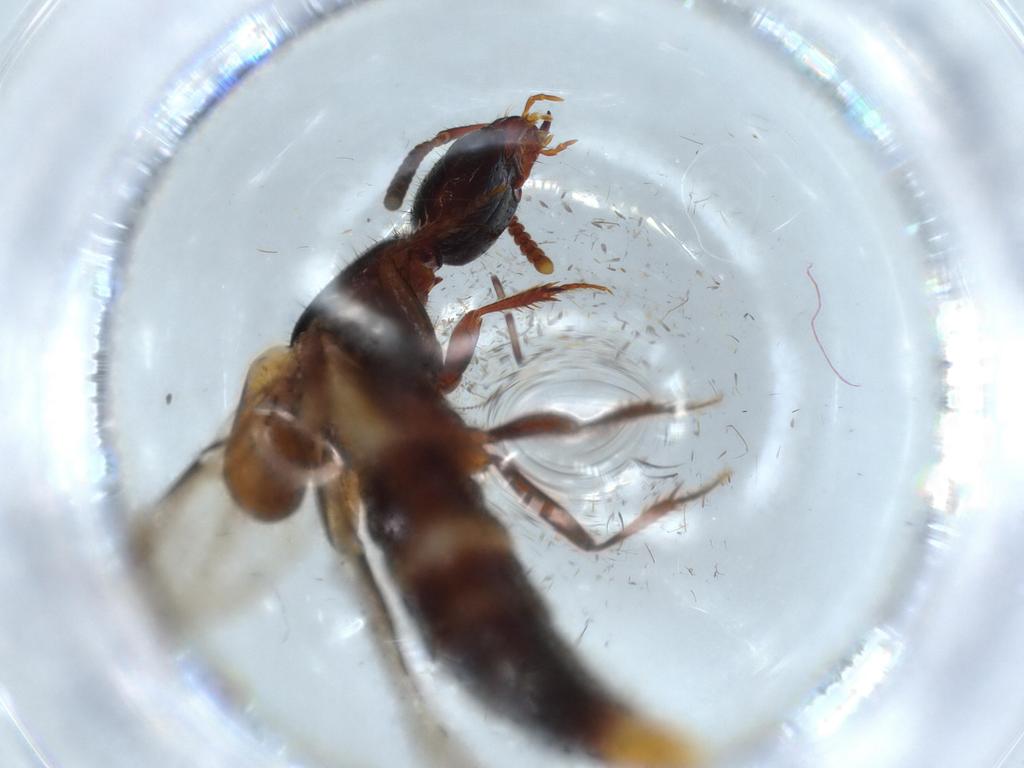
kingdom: Animalia
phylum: Arthropoda
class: Insecta
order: Coleoptera
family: Staphylinidae
